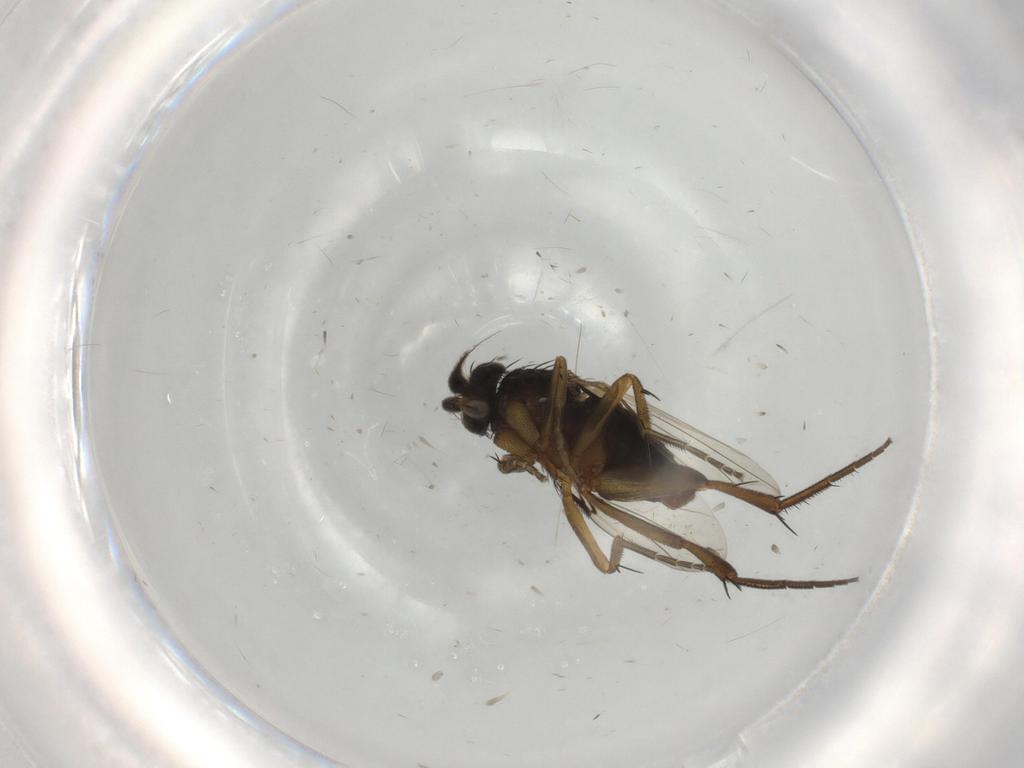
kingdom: Animalia
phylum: Arthropoda
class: Insecta
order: Diptera
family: Phoridae
